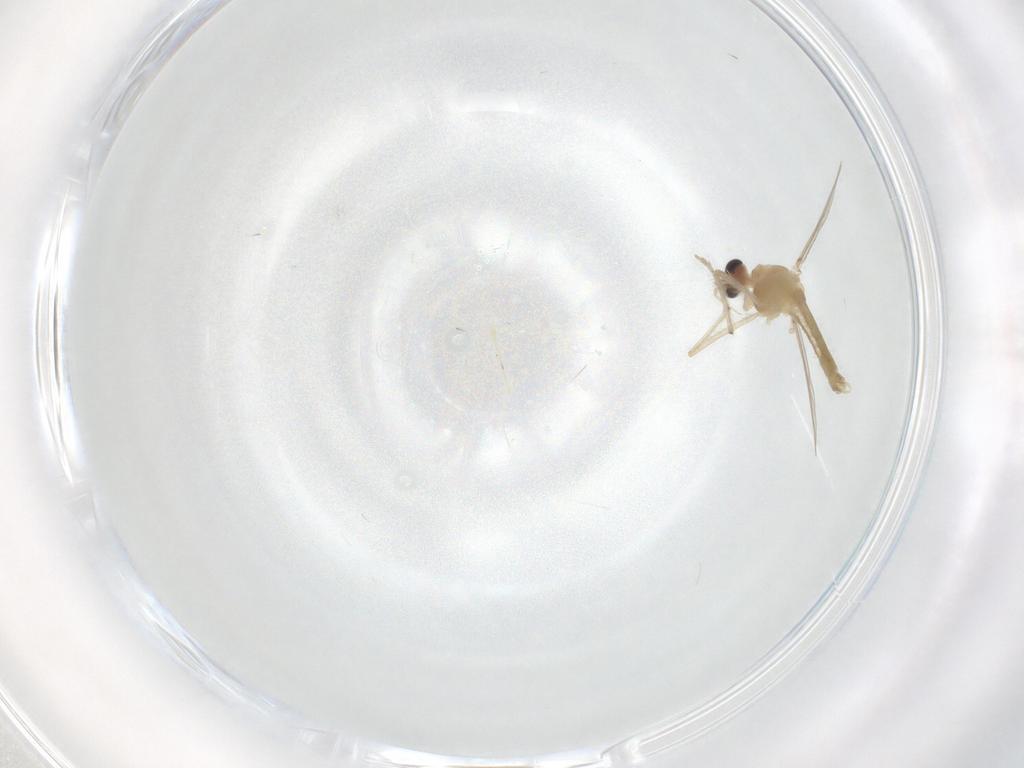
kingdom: Animalia
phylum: Arthropoda
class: Insecta
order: Diptera
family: Chironomidae
